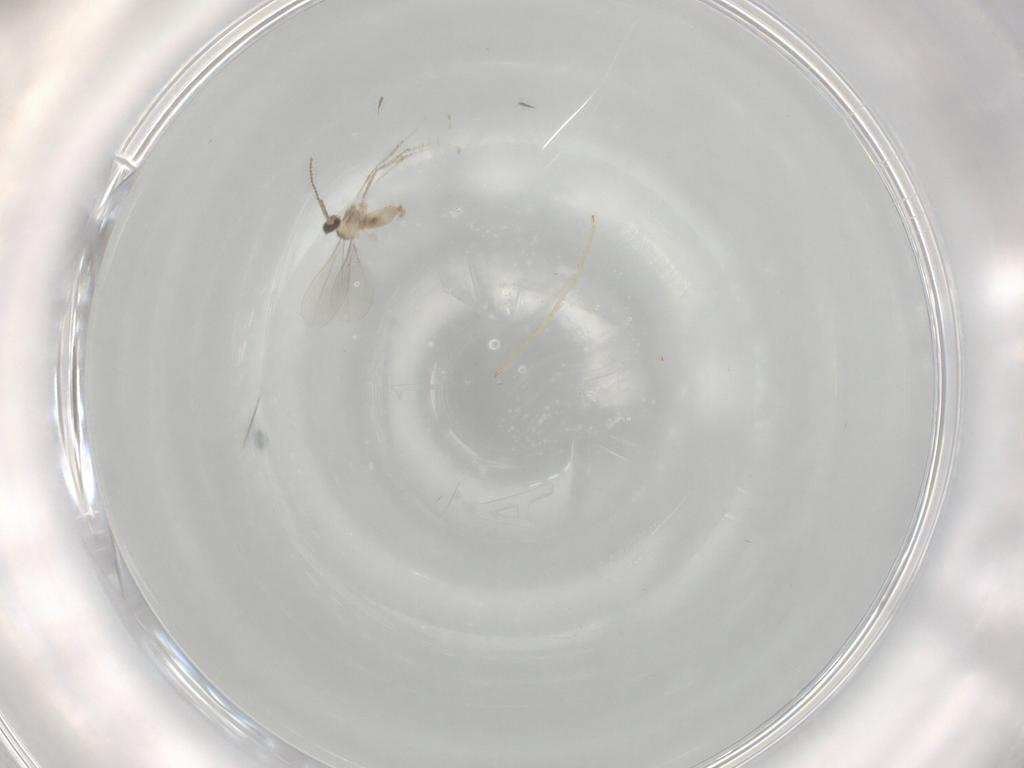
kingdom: Animalia
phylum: Arthropoda
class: Insecta
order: Diptera
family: Chironomidae
